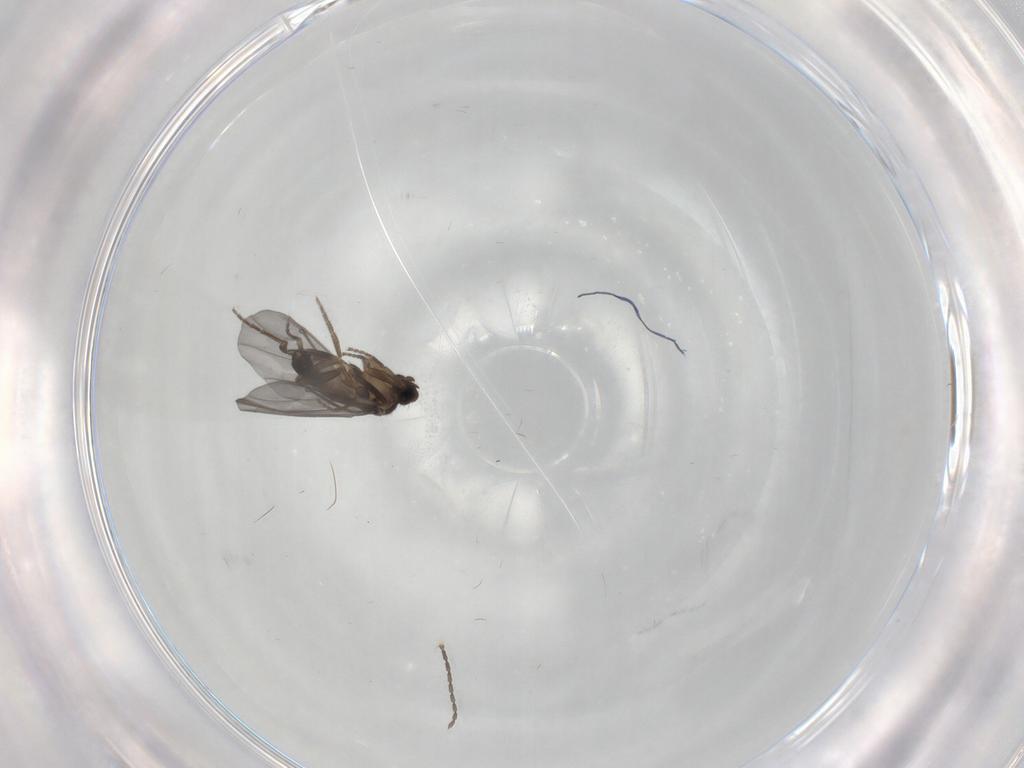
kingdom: Animalia
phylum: Arthropoda
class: Insecta
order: Diptera
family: Phoridae
